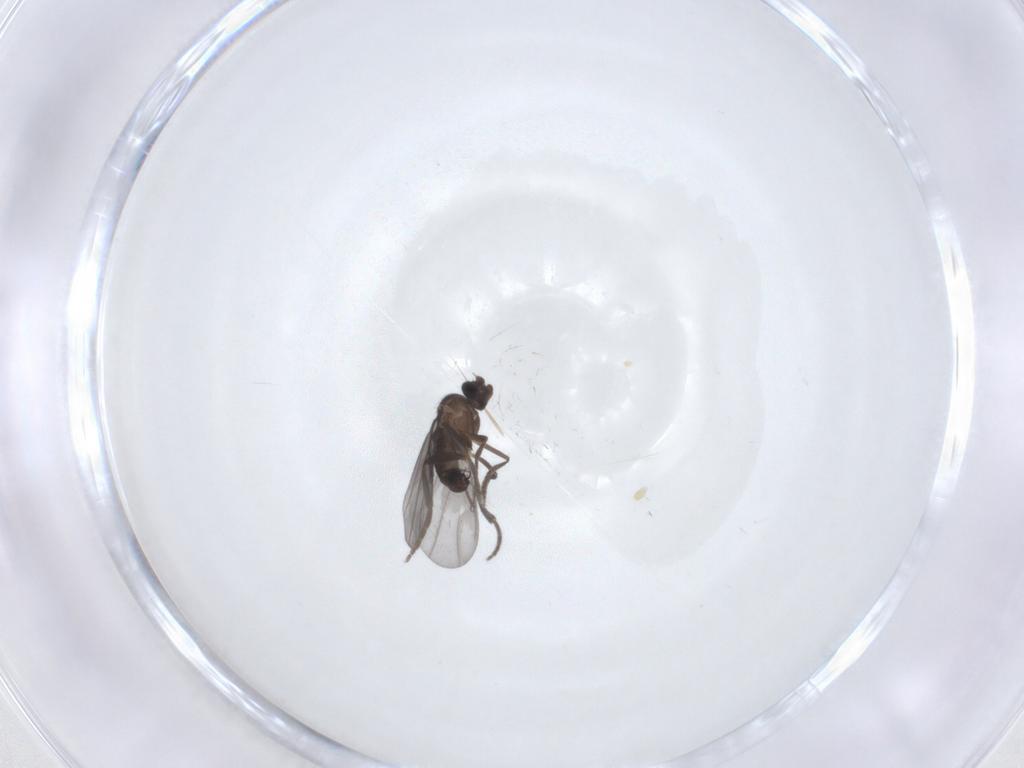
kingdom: Animalia
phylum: Arthropoda
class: Insecta
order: Diptera
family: Phoridae
